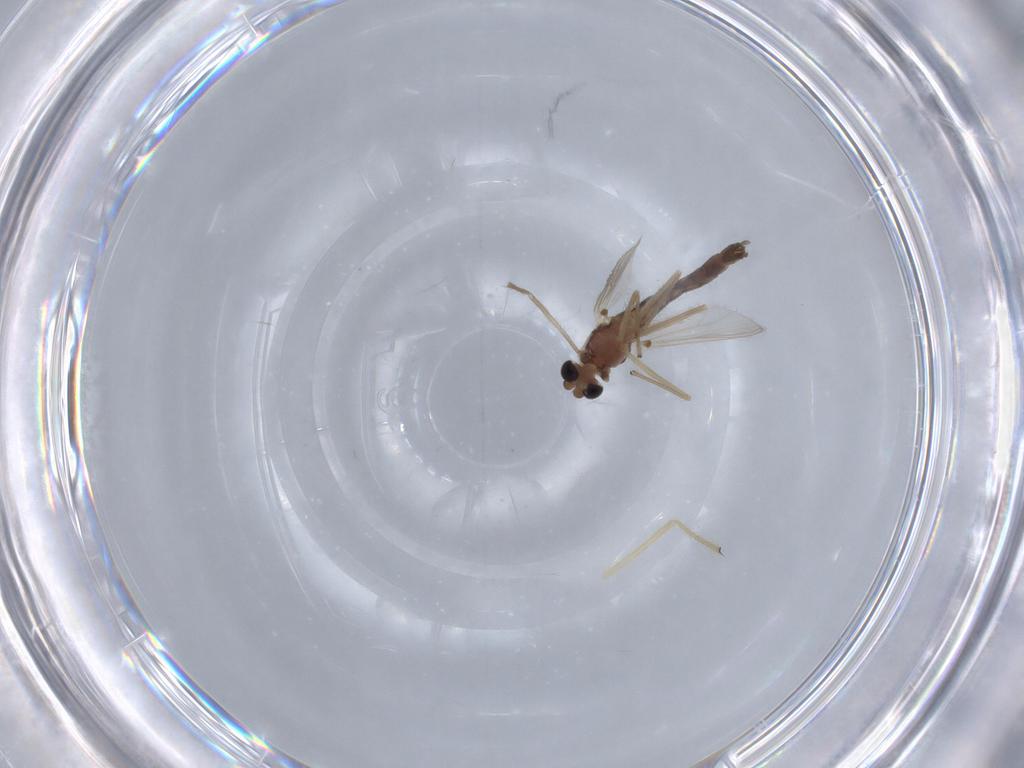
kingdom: Animalia
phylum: Arthropoda
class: Insecta
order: Diptera
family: Chironomidae
